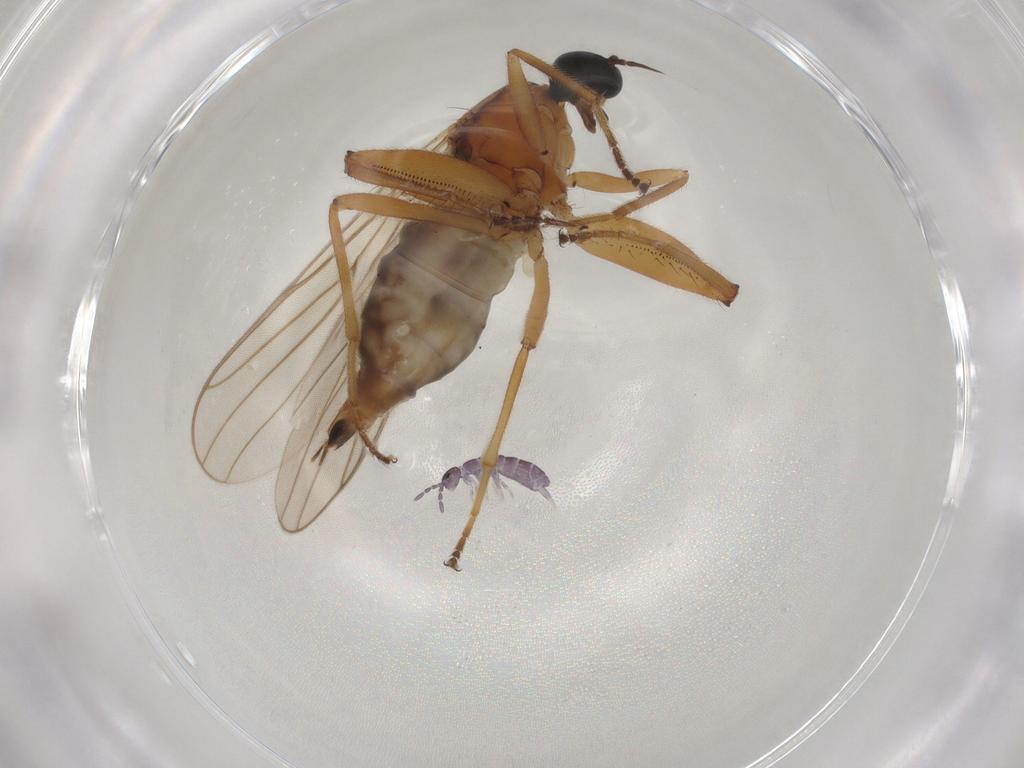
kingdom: Animalia
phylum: Arthropoda
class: Insecta
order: Diptera
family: Hybotidae
